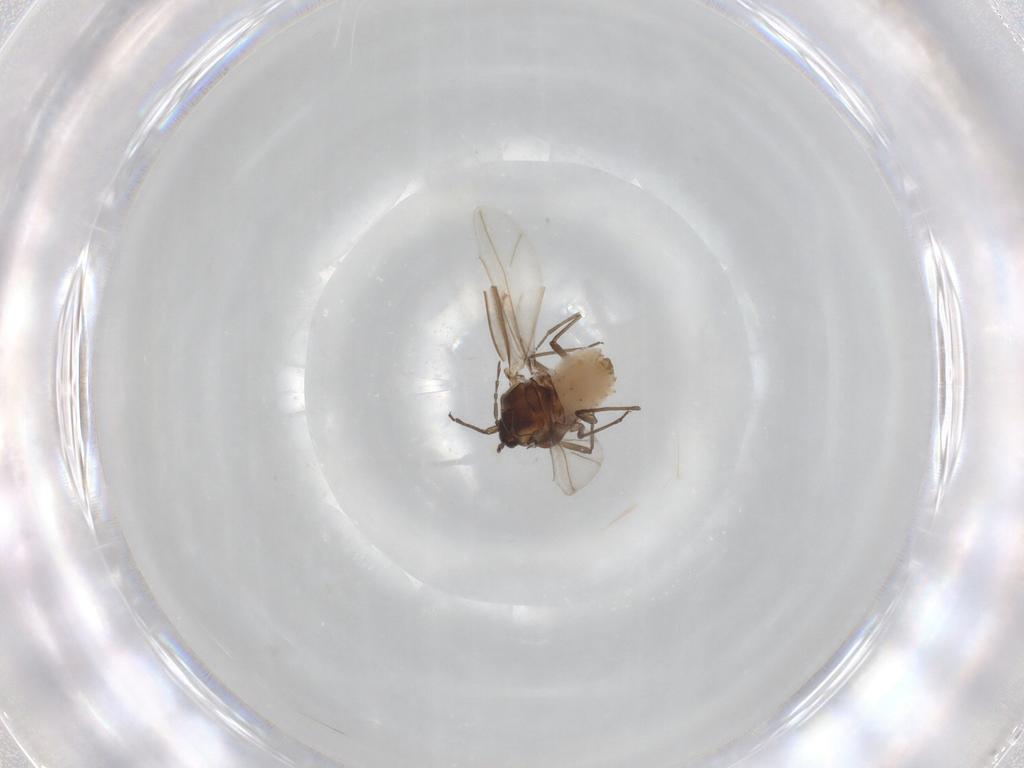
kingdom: Animalia
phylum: Arthropoda
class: Insecta
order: Hemiptera
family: Aphididae
